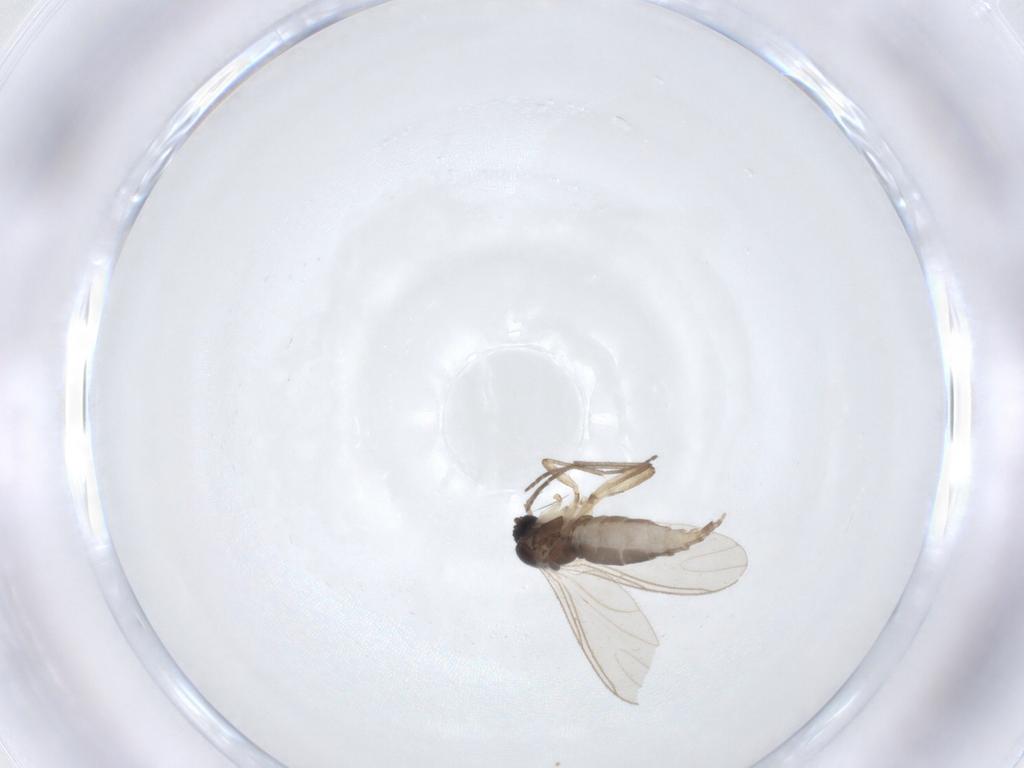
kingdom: Animalia
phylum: Arthropoda
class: Insecta
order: Diptera
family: Sciaridae
